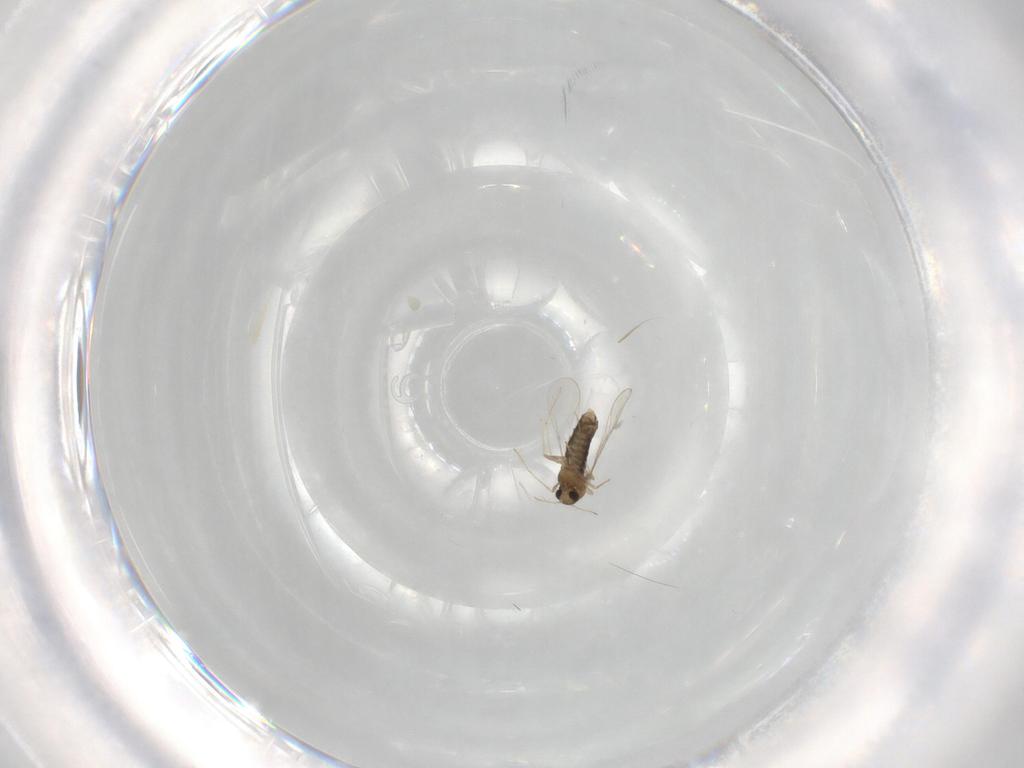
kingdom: Animalia
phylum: Arthropoda
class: Insecta
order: Diptera
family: Chironomidae
